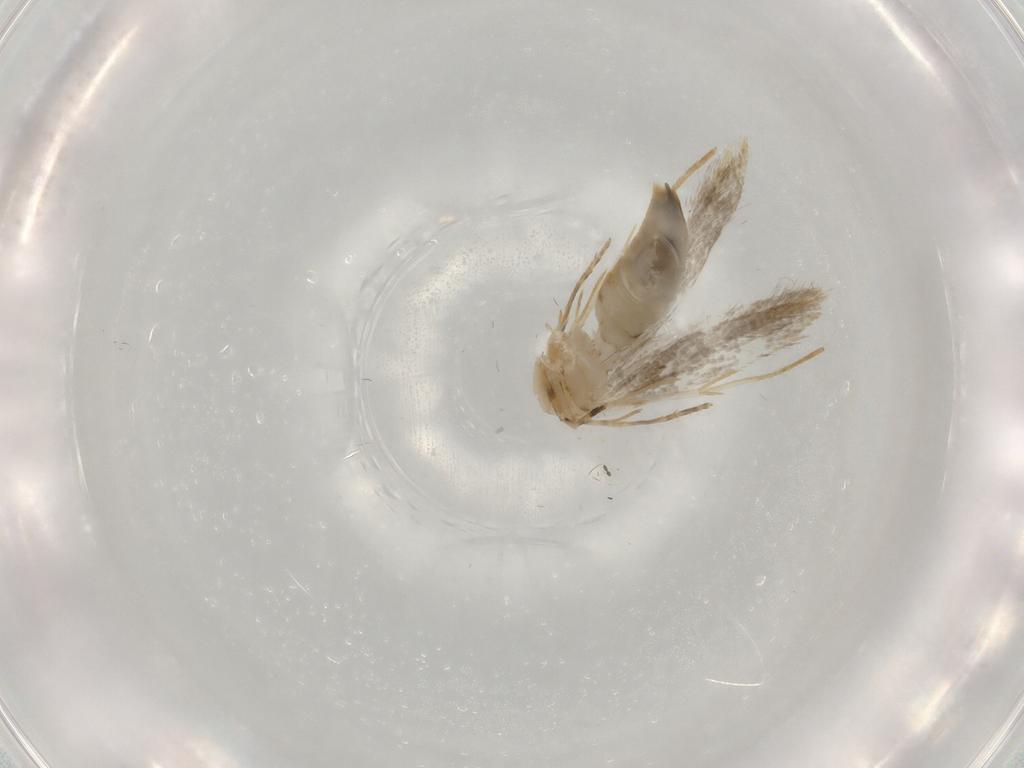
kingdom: Animalia
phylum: Arthropoda
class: Insecta
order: Lepidoptera
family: Tineidae
